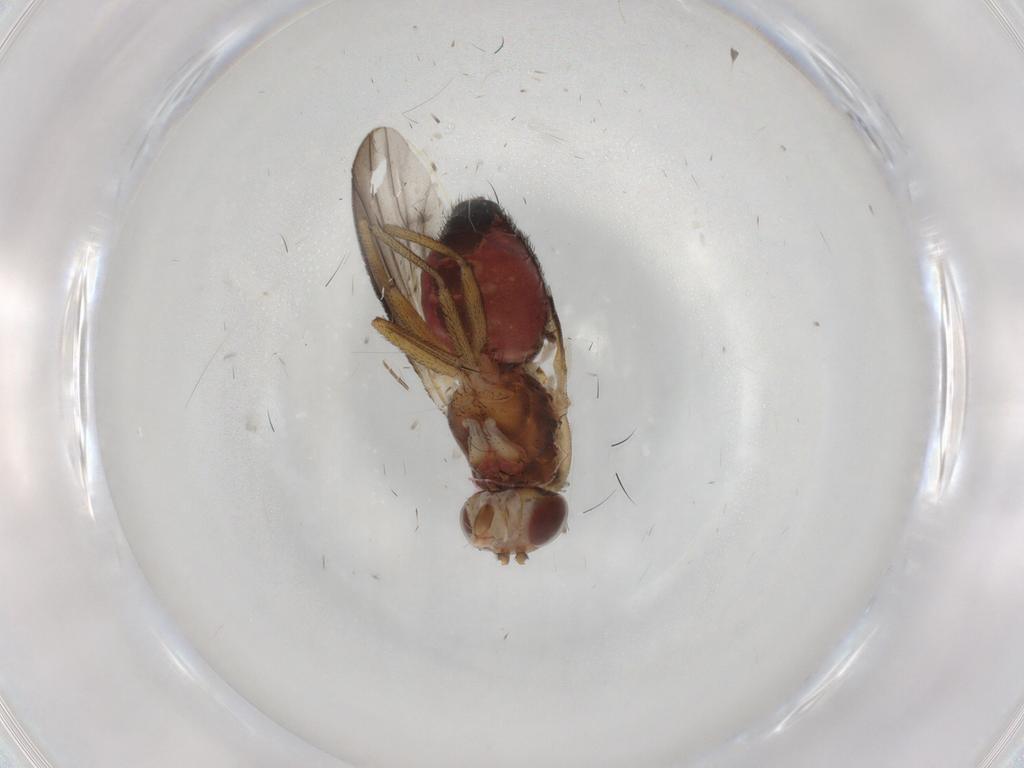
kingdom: Animalia
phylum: Arthropoda
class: Insecta
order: Diptera
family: Heleomyzidae
